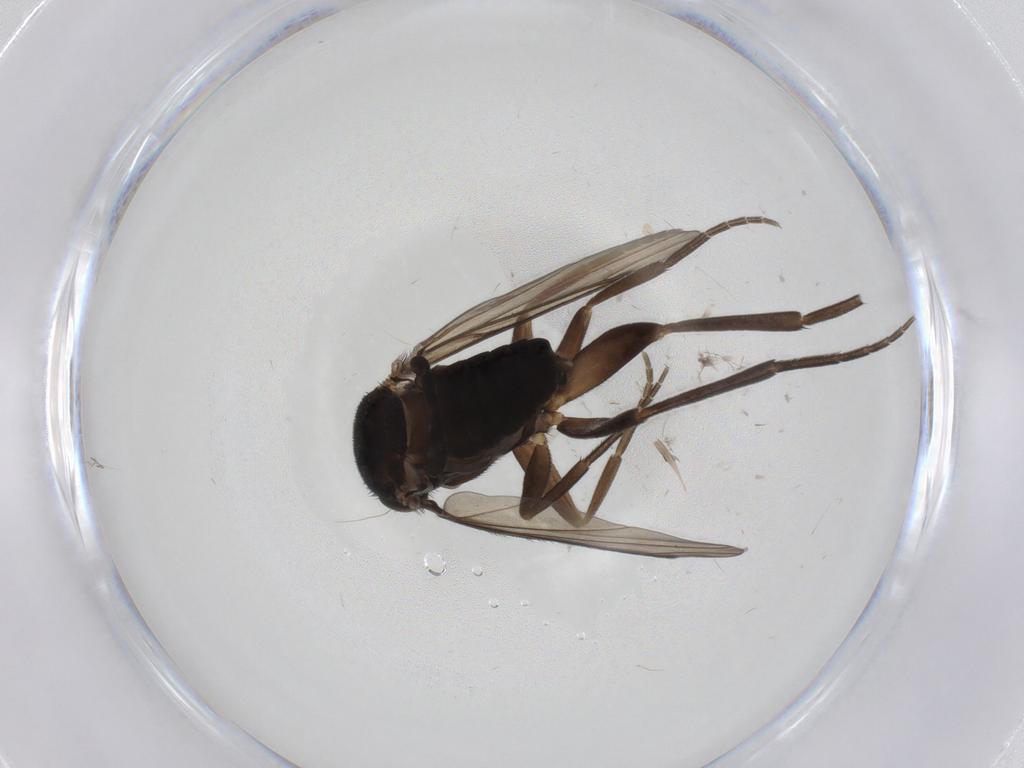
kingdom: Animalia
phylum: Arthropoda
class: Insecta
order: Diptera
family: Phoridae
